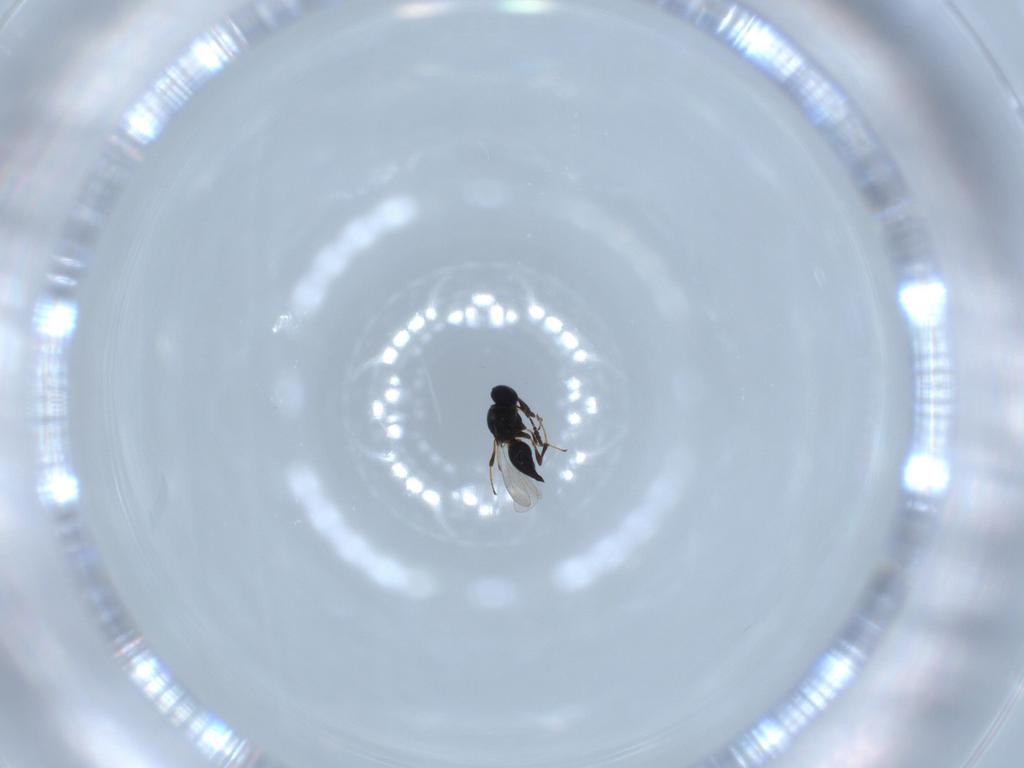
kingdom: Animalia
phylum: Arthropoda
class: Insecta
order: Hymenoptera
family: Platygastridae
